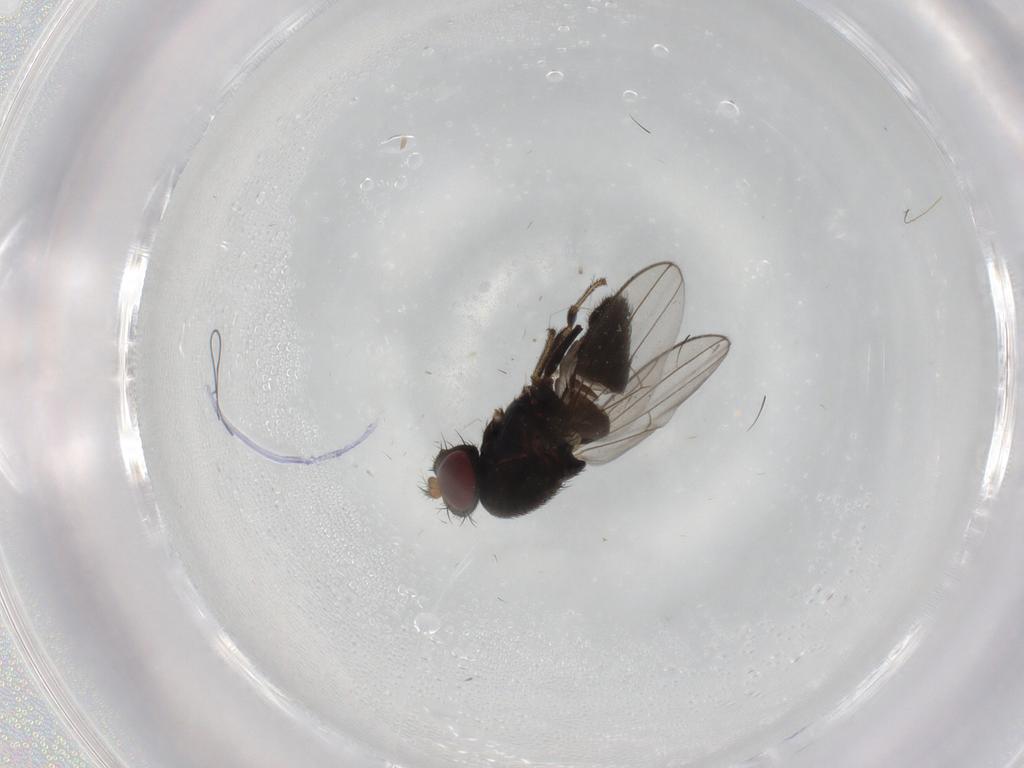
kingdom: Animalia
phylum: Arthropoda
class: Insecta
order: Diptera
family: Ephydridae
